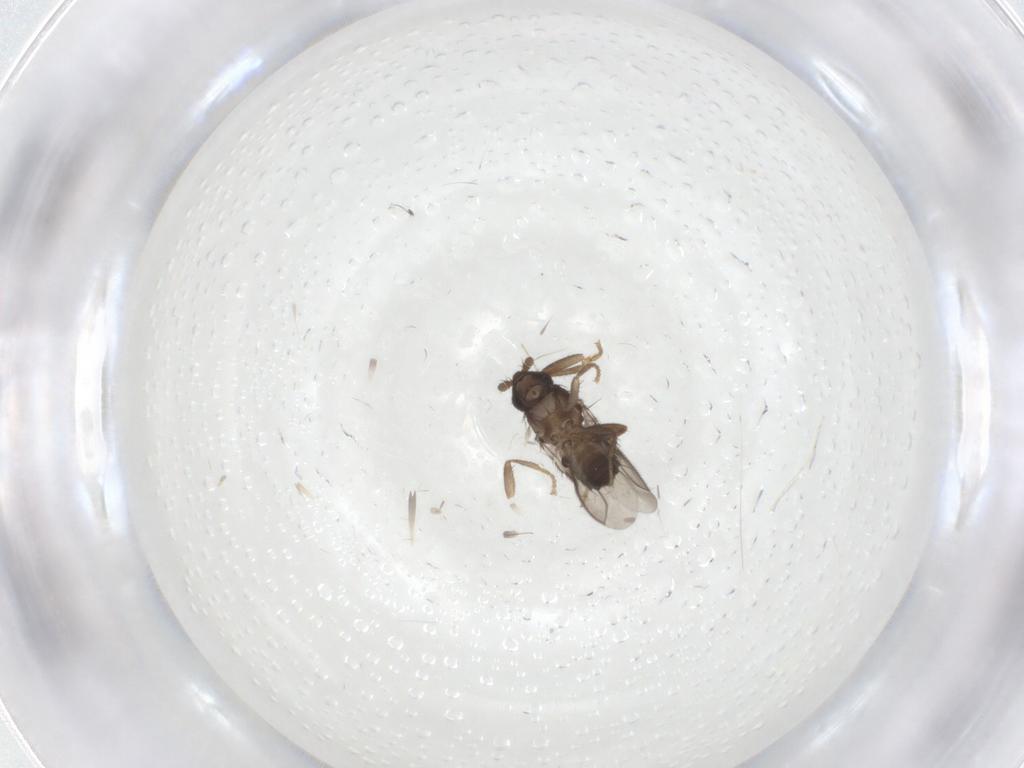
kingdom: Animalia
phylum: Arthropoda
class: Insecta
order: Diptera
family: Sphaeroceridae
